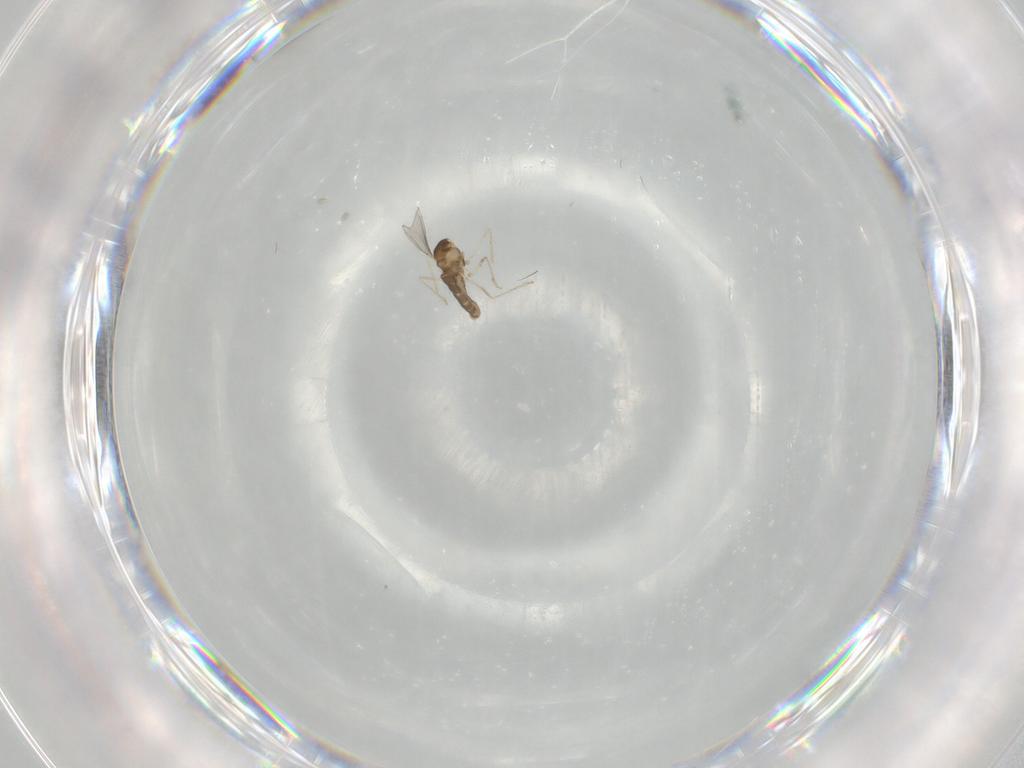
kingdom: Animalia
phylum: Arthropoda
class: Insecta
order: Diptera
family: Cecidomyiidae
